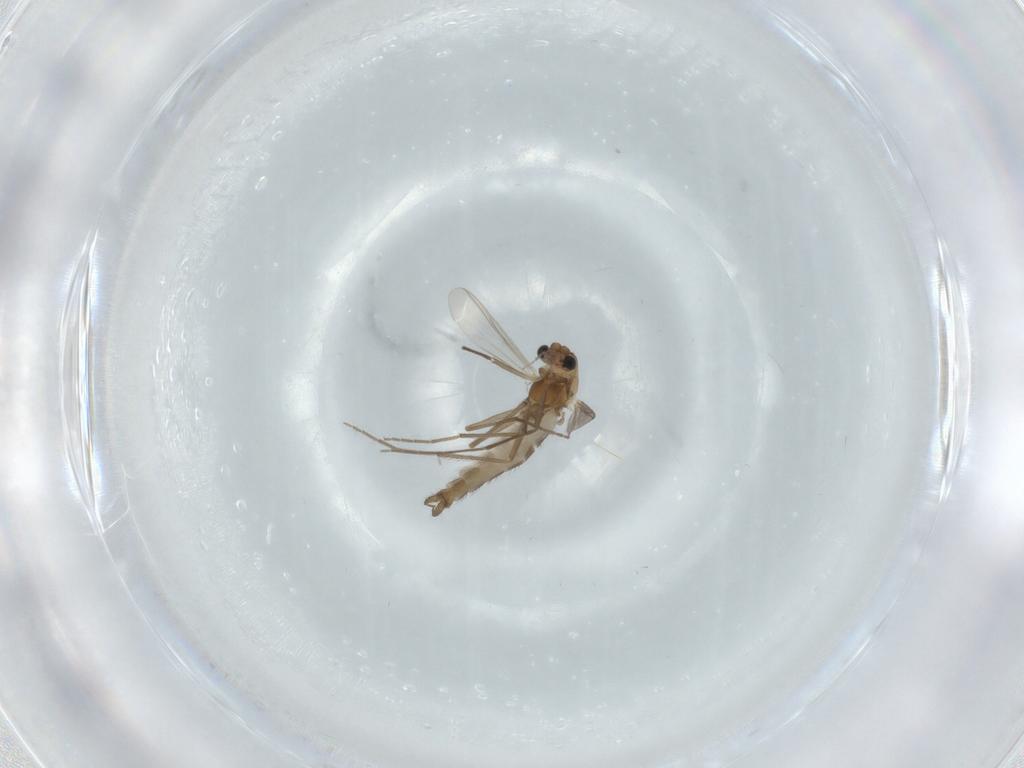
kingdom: Animalia
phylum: Arthropoda
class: Insecta
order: Diptera
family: Chironomidae
